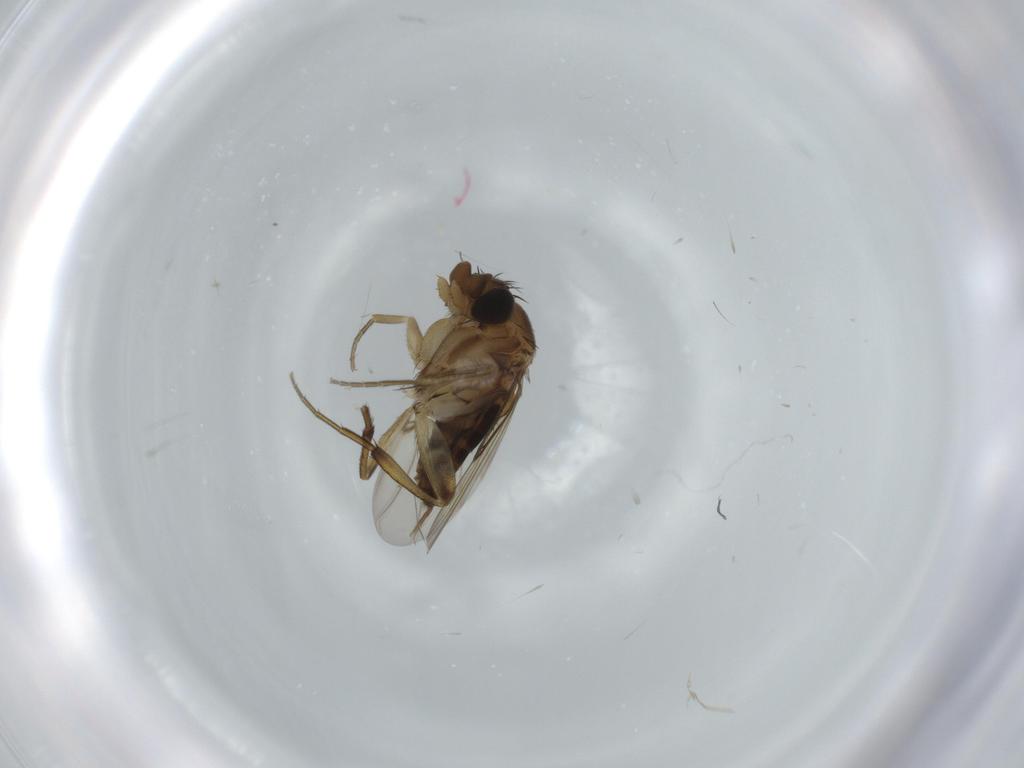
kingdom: Animalia
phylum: Arthropoda
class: Insecta
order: Diptera
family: Phoridae
